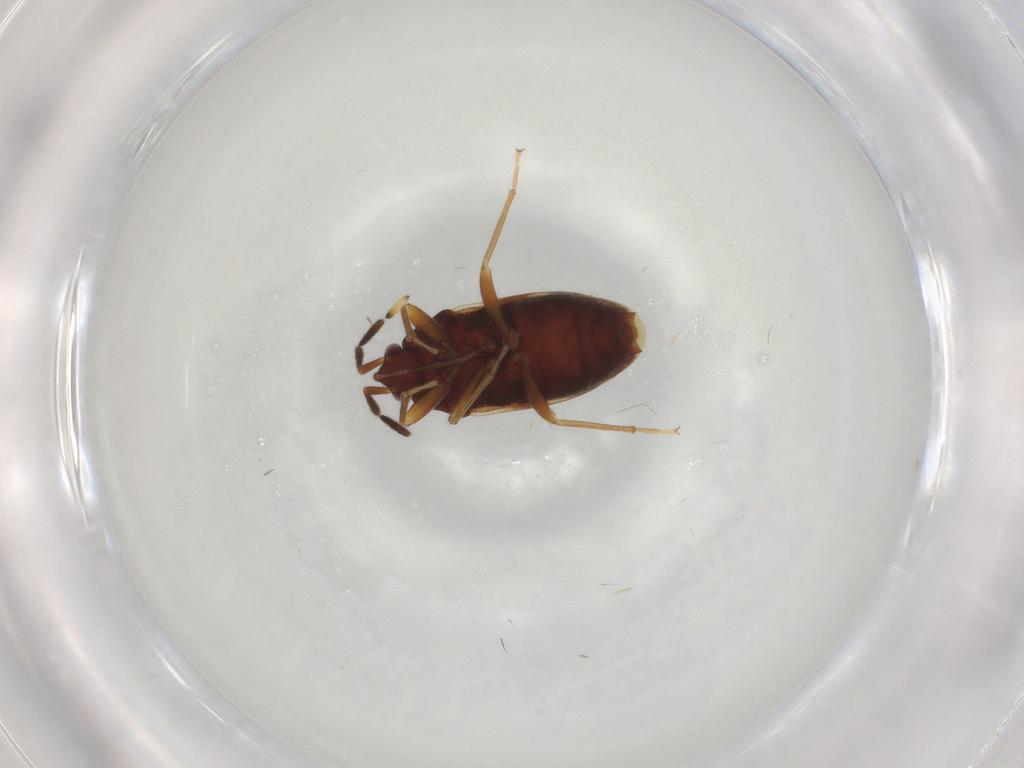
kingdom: Animalia
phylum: Arthropoda
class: Insecta
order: Hemiptera
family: Rhyparochromidae
